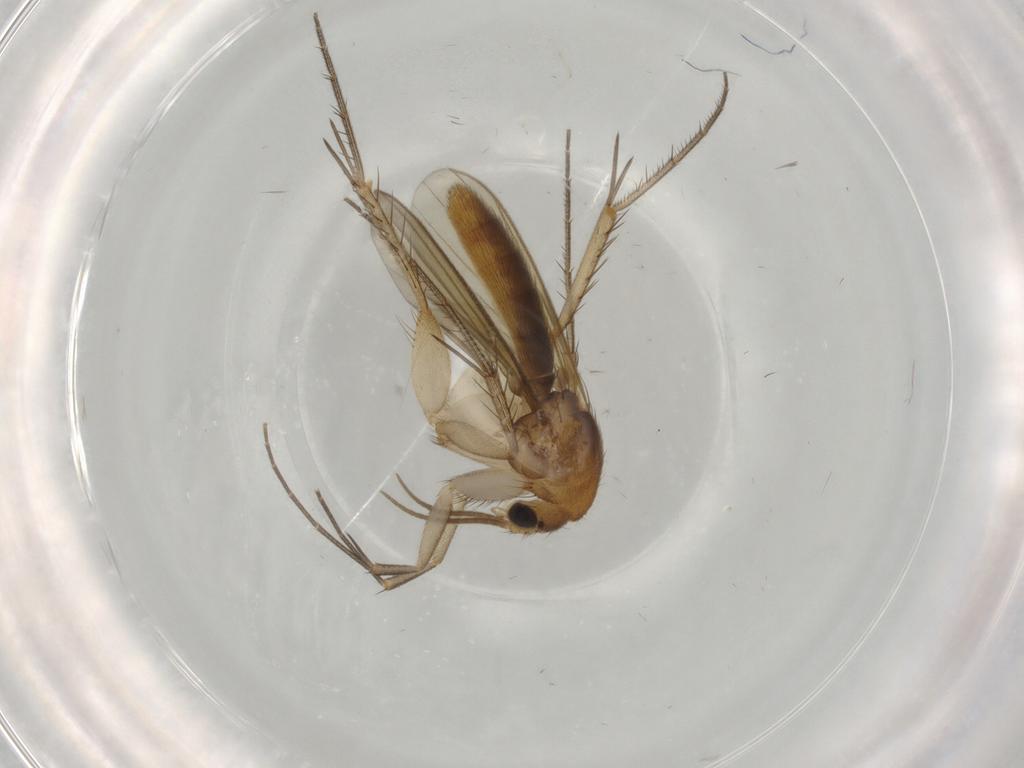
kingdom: Animalia
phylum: Arthropoda
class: Insecta
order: Diptera
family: Mycetophilidae
